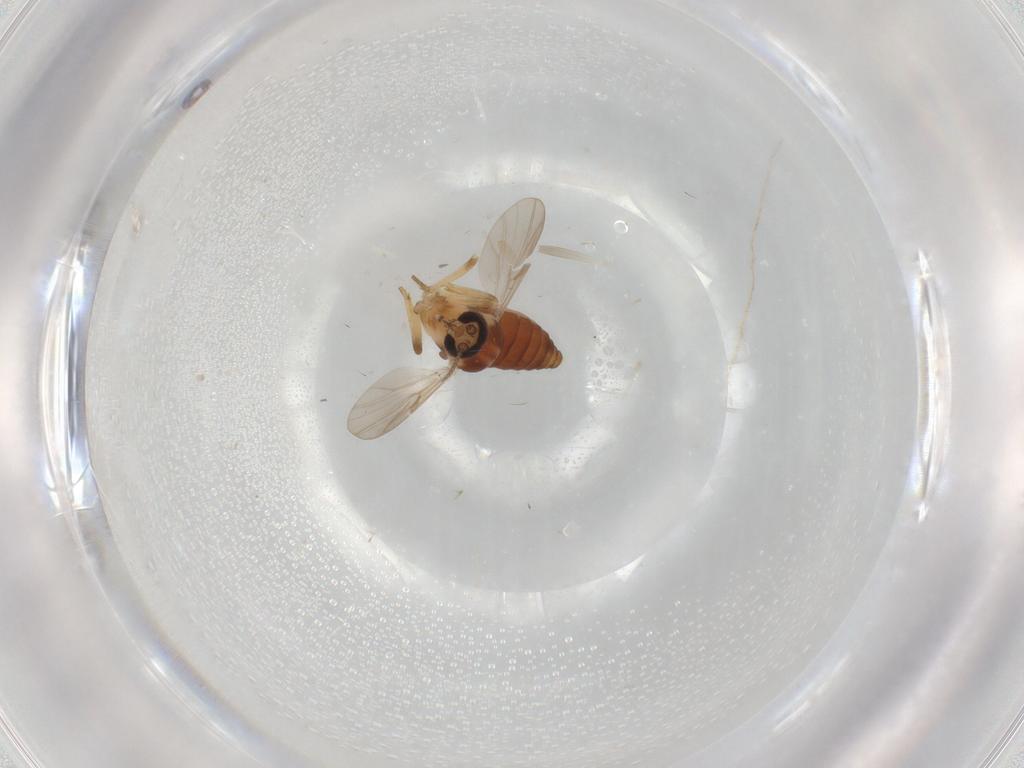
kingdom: Animalia
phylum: Arthropoda
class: Insecta
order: Diptera
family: Ceratopogonidae
